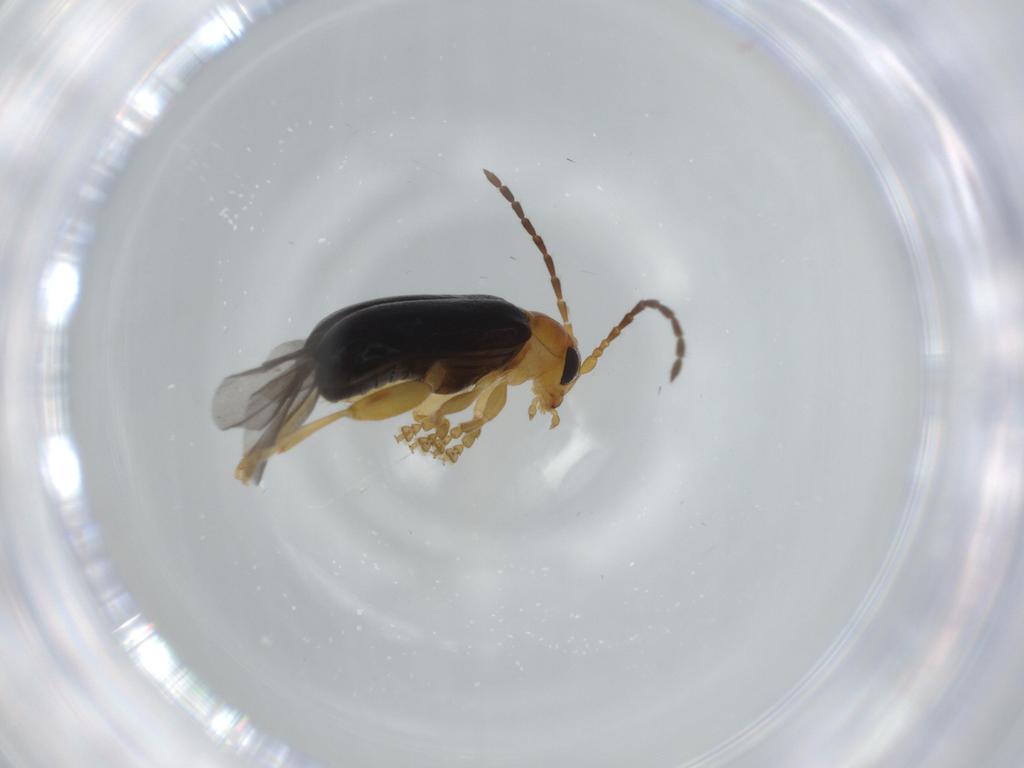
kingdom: Animalia
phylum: Arthropoda
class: Insecta
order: Coleoptera
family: Chrysomelidae
